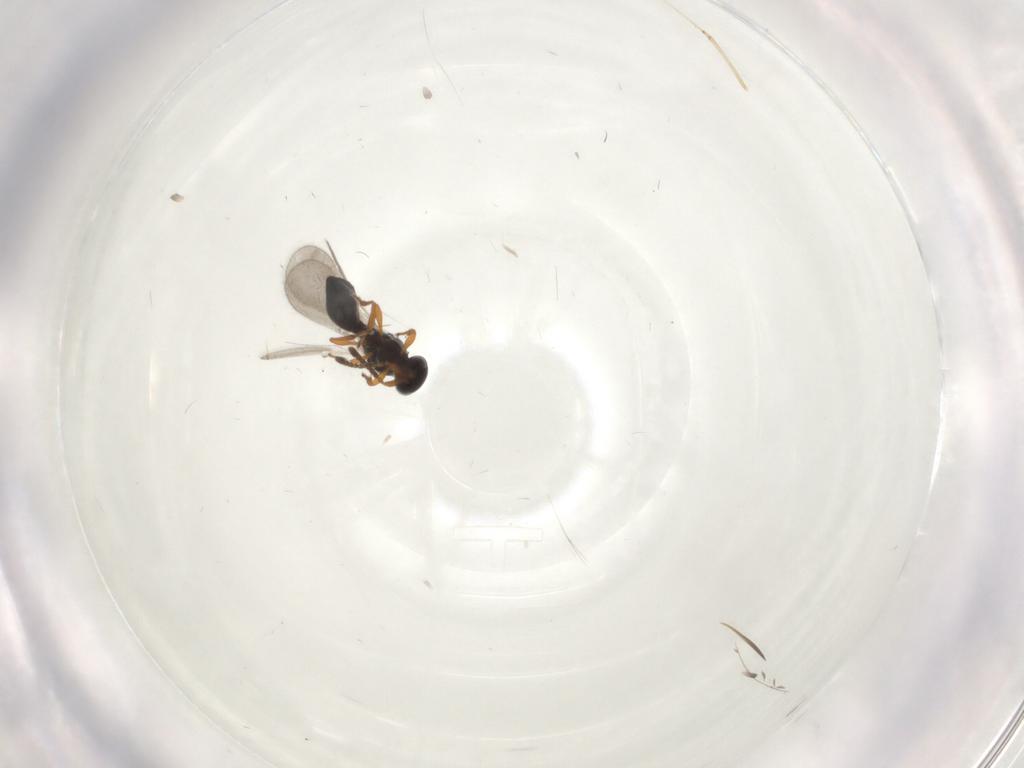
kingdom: Animalia
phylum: Arthropoda
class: Insecta
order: Hymenoptera
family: Platygastridae
